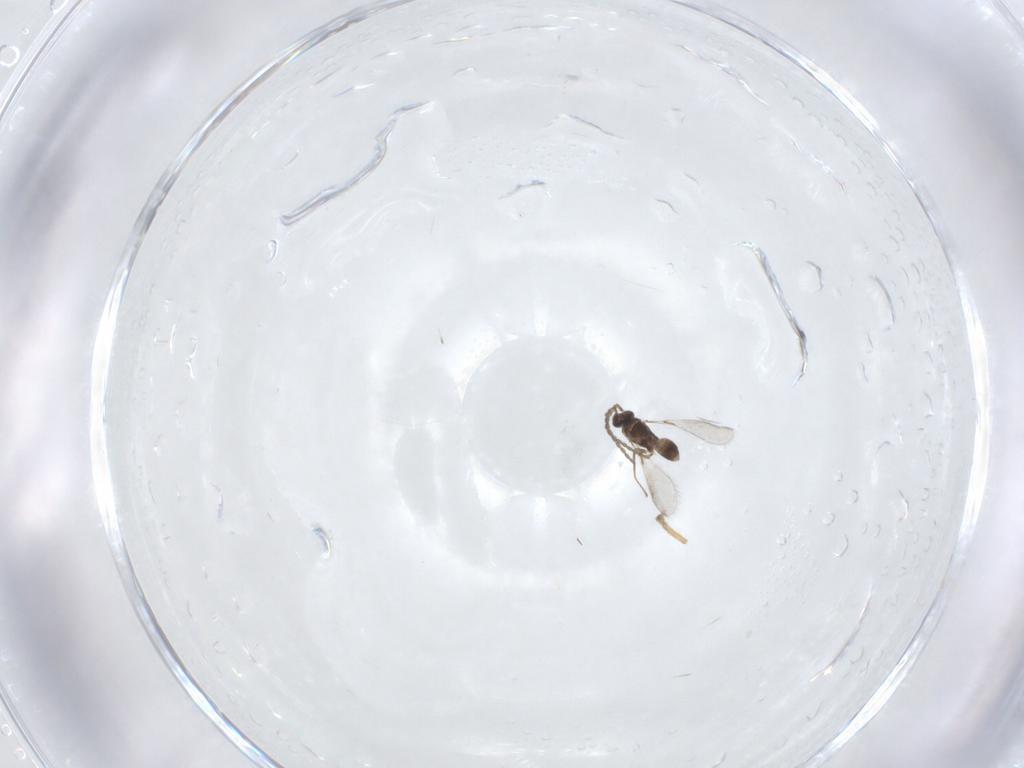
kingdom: Animalia
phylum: Arthropoda
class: Insecta
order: Hymenoptera
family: Mymaridae
